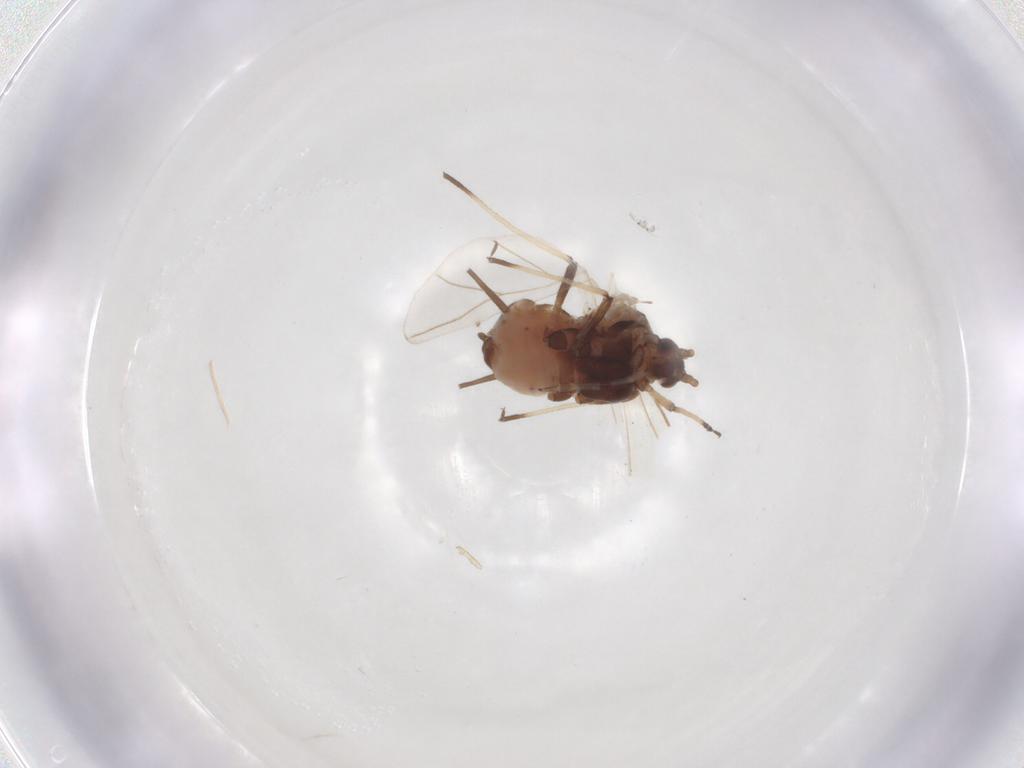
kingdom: Animalia
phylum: Arthropoda
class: Insecta
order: Hemiptera
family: Aphididae
